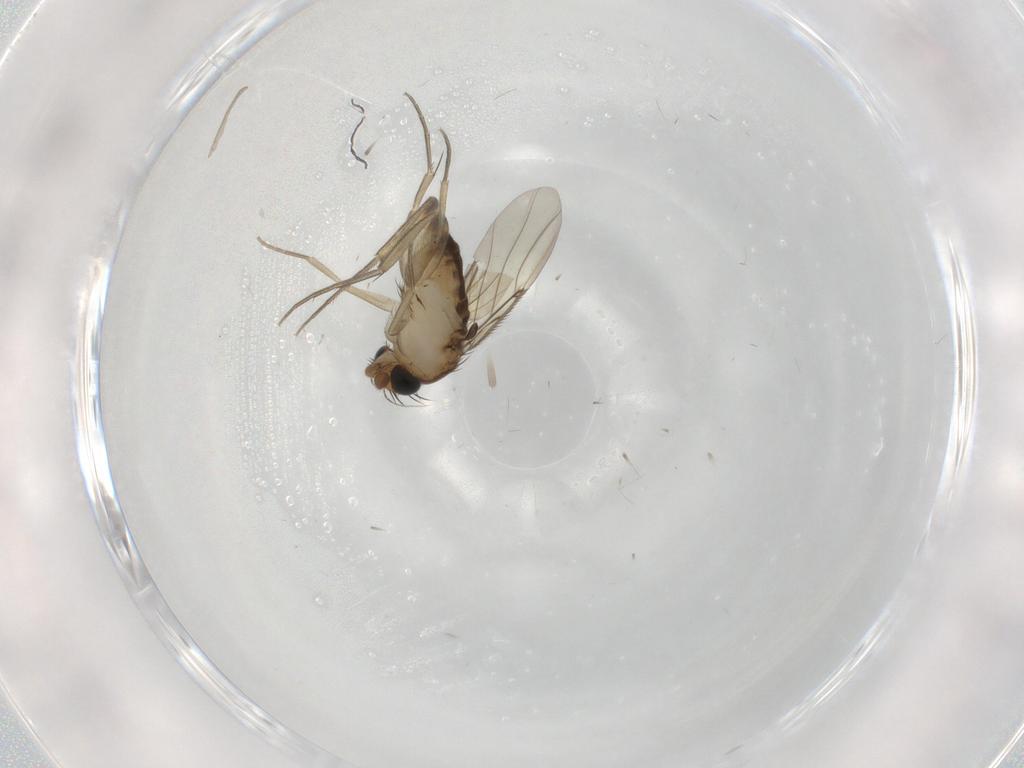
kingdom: Animalia
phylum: Arthropoda
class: Insecta
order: Diptera
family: Phoridae
